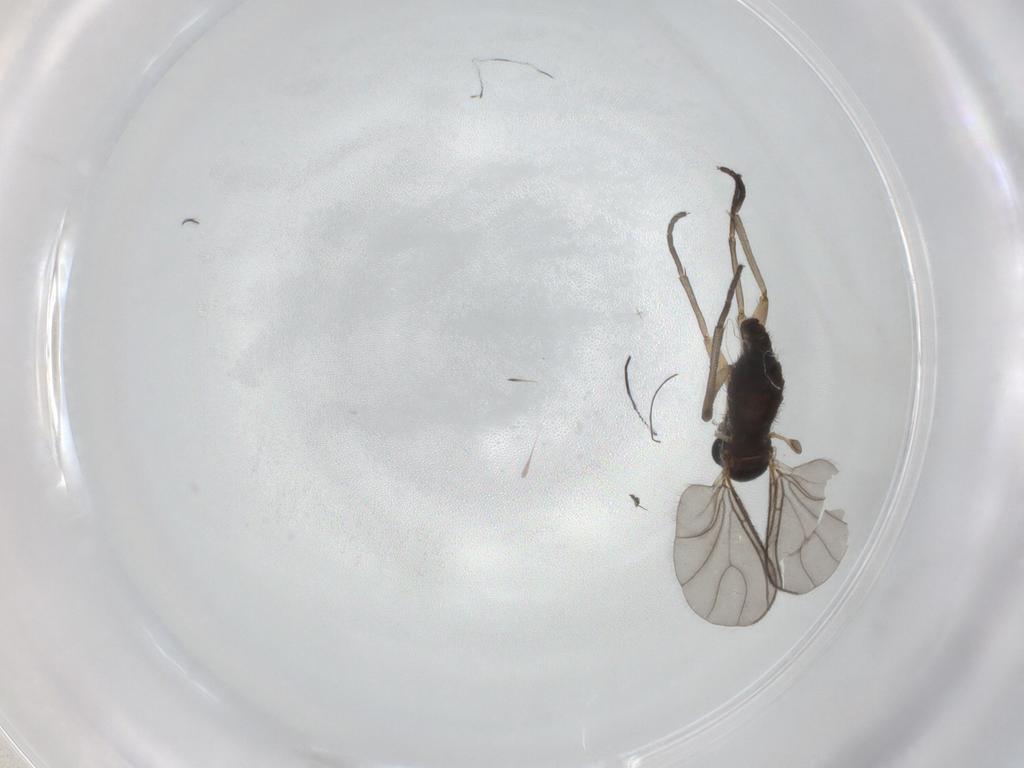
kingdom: Animalia
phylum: Arthropoda
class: Insecta
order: Diptera
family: Sciaridae
